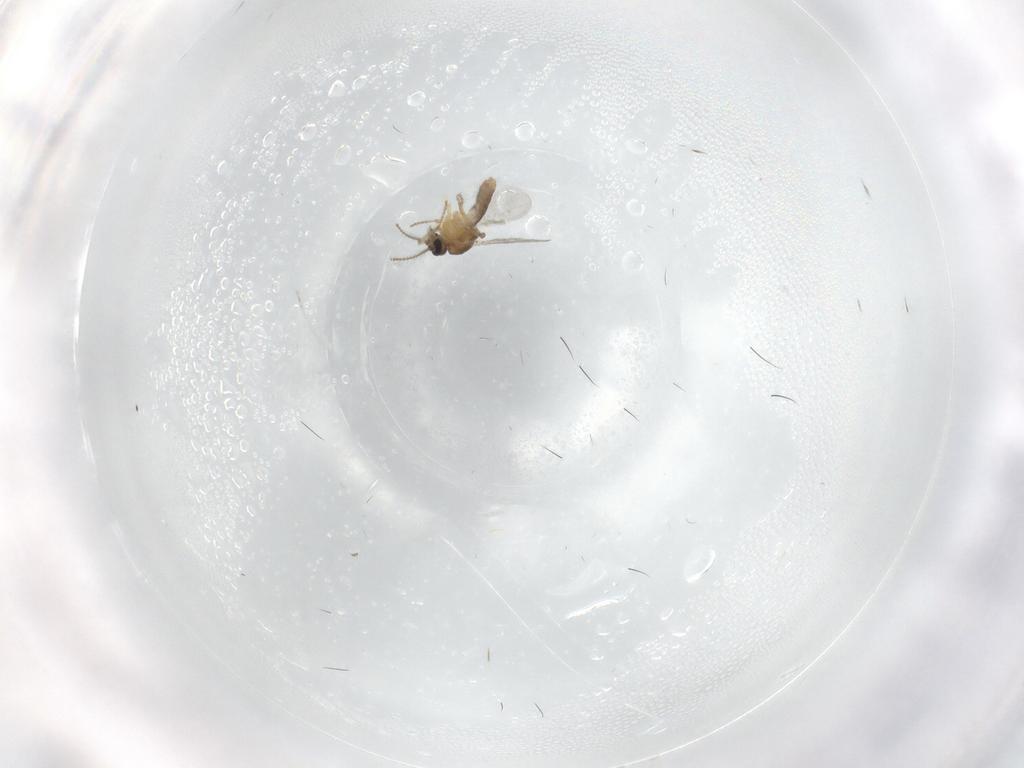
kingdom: Animalia
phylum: Arthropoda
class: Insecta
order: Diptera
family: Ceratopogonidae
